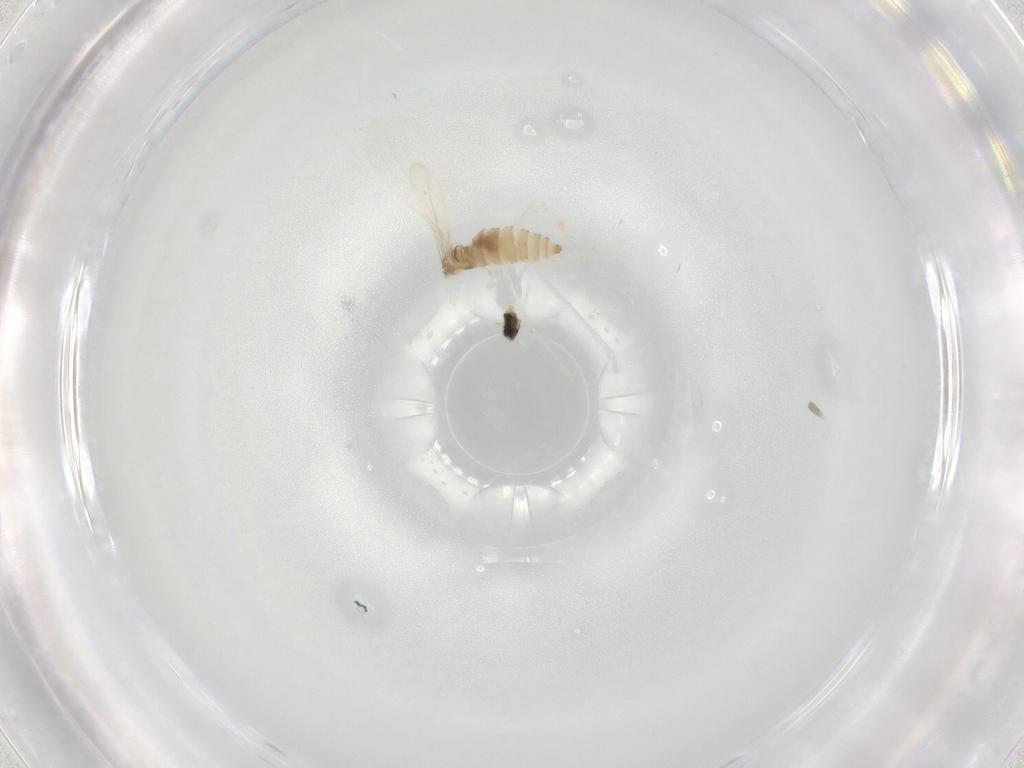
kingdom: Animalia
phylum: Arthropoda
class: Insecta
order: Diptera
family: Cecidomyiidae
